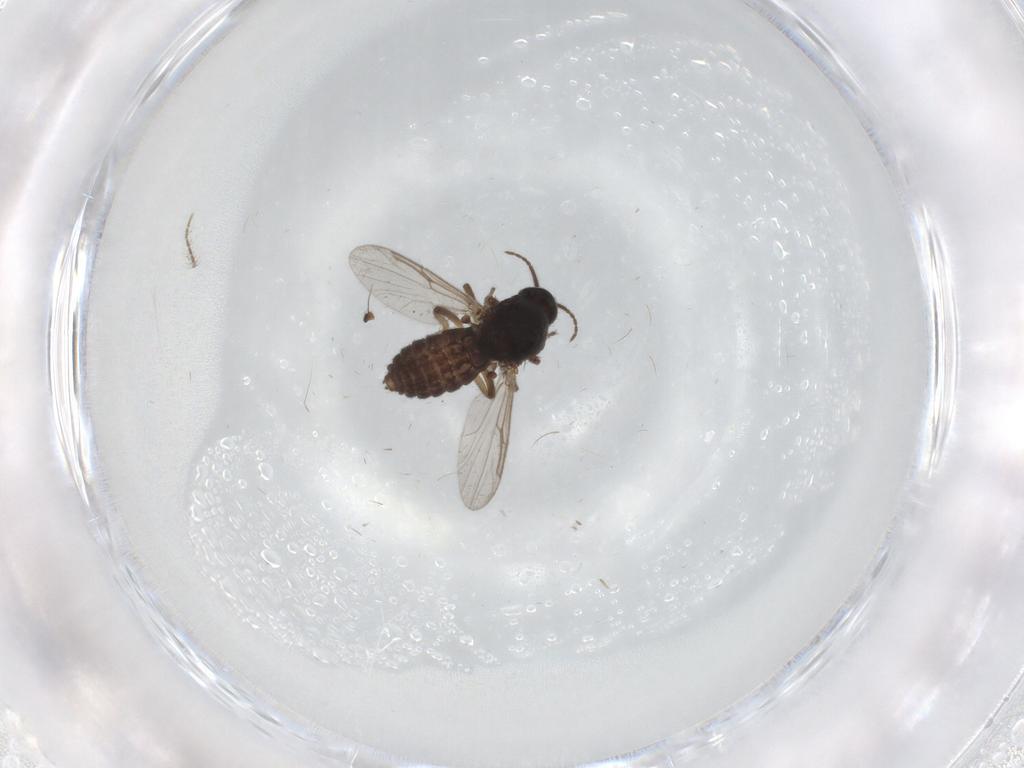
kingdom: Animalia
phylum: Arthropoda
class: Insecta
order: Diptera
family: Ceratopogonidae
